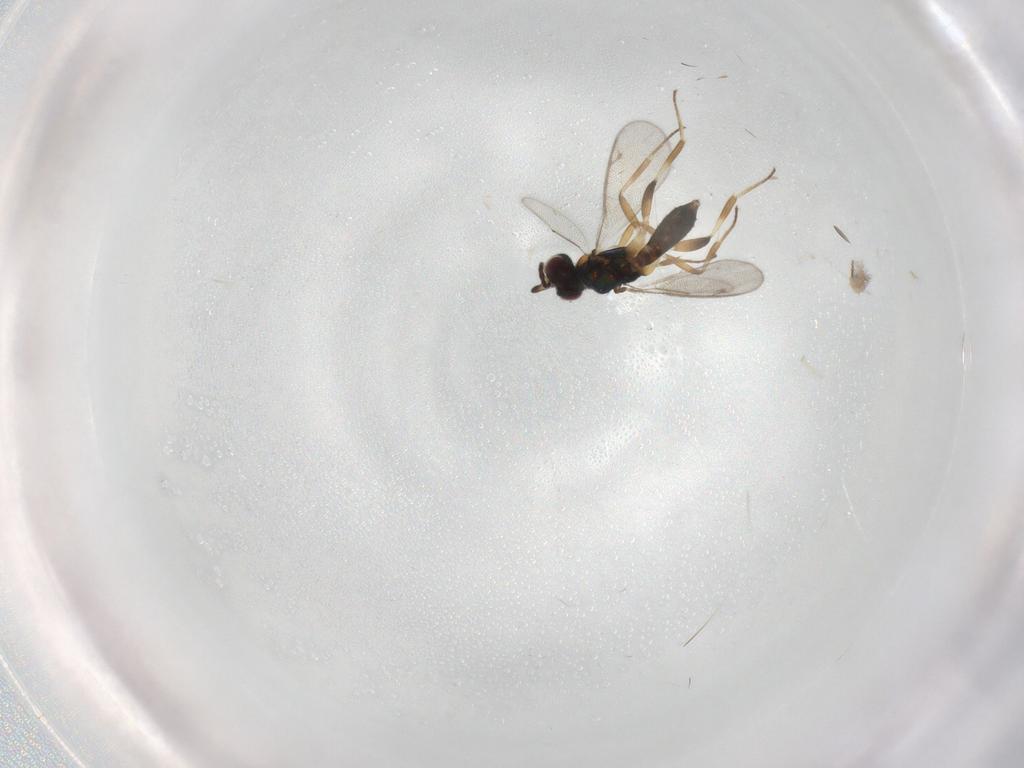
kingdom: Animalia
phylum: Arthropoda
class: Insecta
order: Hymenoptera
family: Eupelmidae
